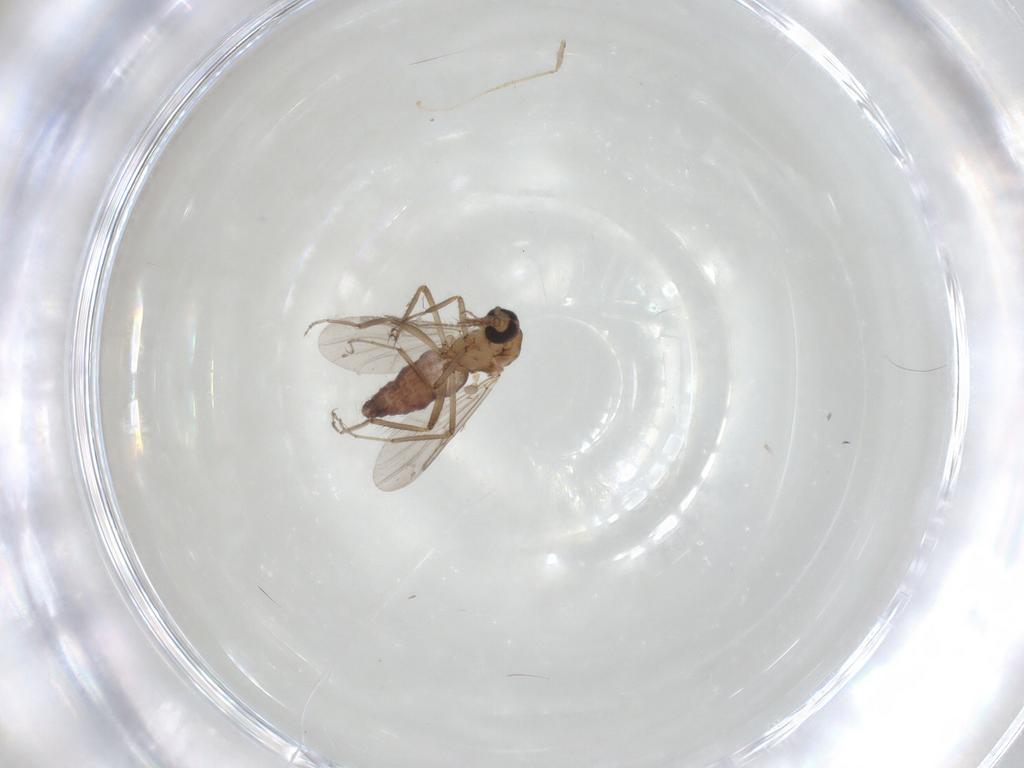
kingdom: Animalia
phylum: Arthropoda
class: Insecta
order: Diptera
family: Ceratopogonidae
